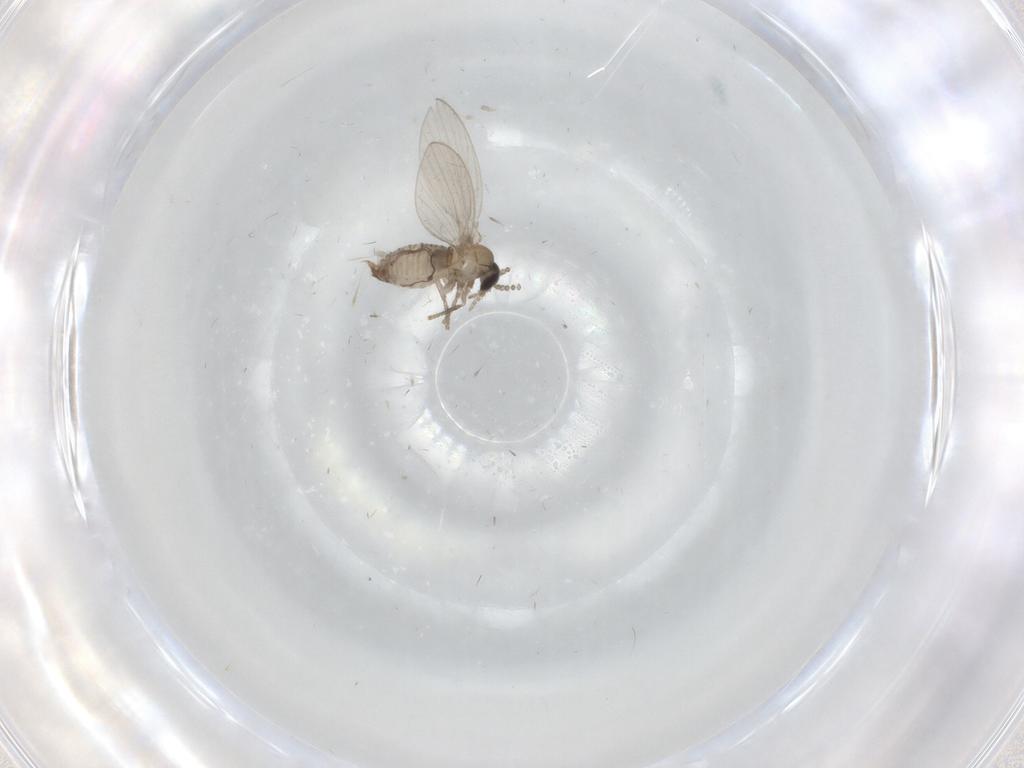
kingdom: Animalia
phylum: Arthropoda
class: Insecta
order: Diptera
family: Psychodidae
